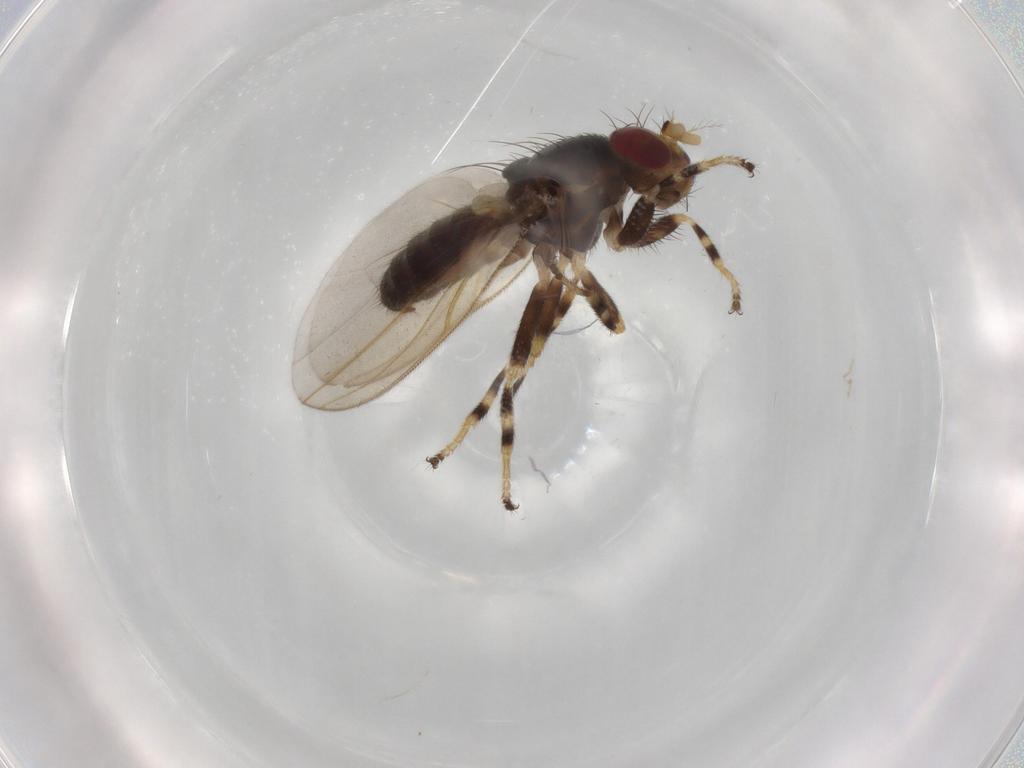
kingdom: Animalia
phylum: Arthropoda
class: Insecta
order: Diptera
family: Periscelididae
